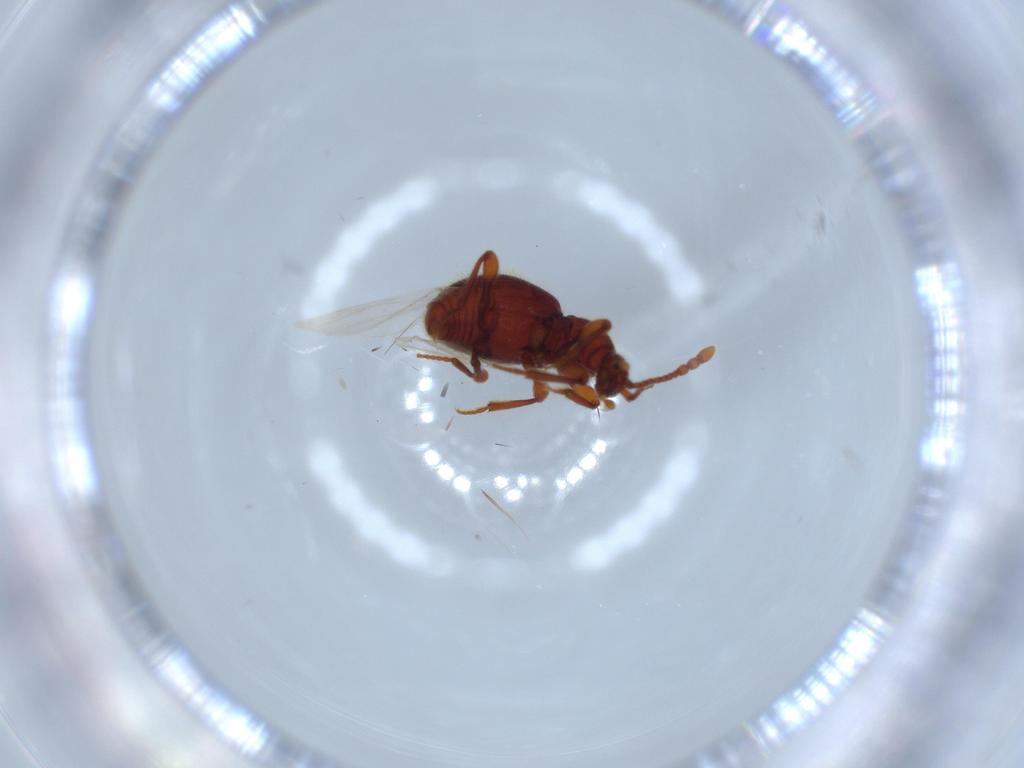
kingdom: Animalia
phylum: Arthropoda
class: Insecta
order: Coleoptera
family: Staphylinidae
